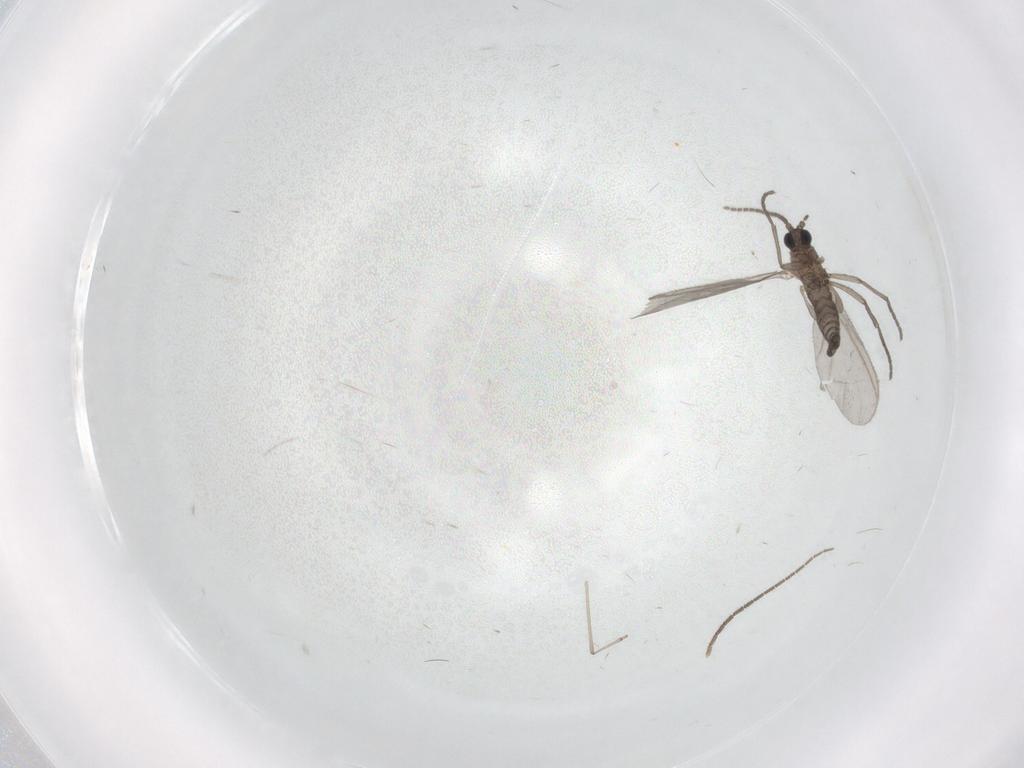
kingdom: Animalia
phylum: Arthropoda
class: Insecta
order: Diptera
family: Sciaridae
